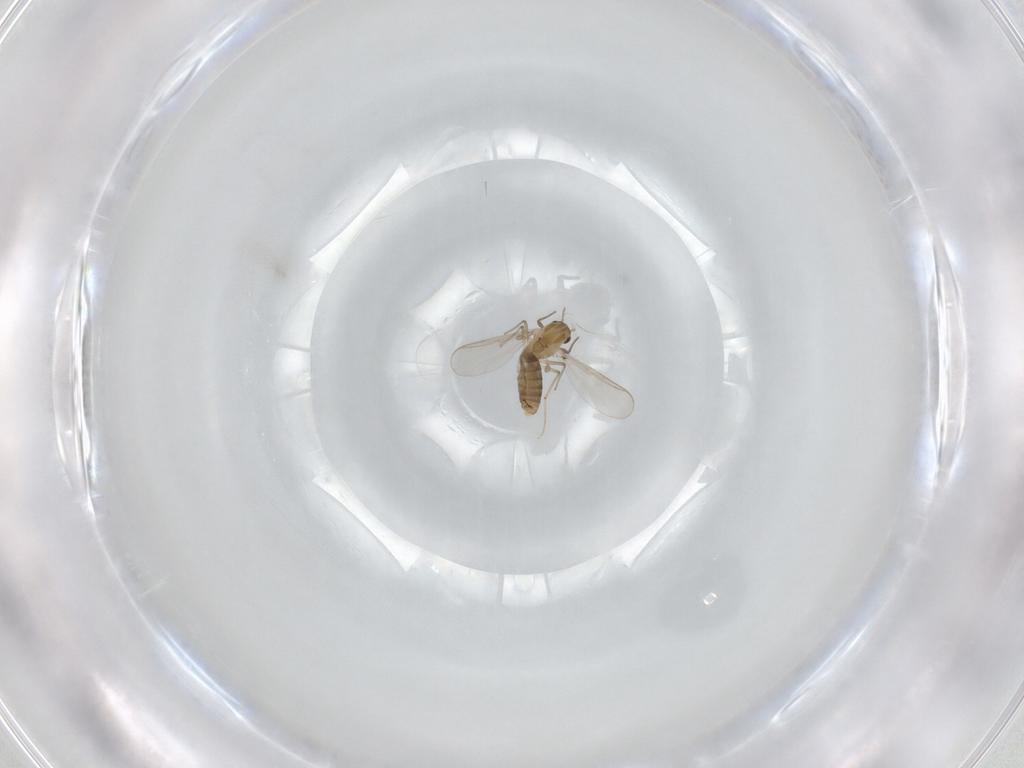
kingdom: Animalia
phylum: Arthropoda
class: Insecta
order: Diptera
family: Chironomidae
